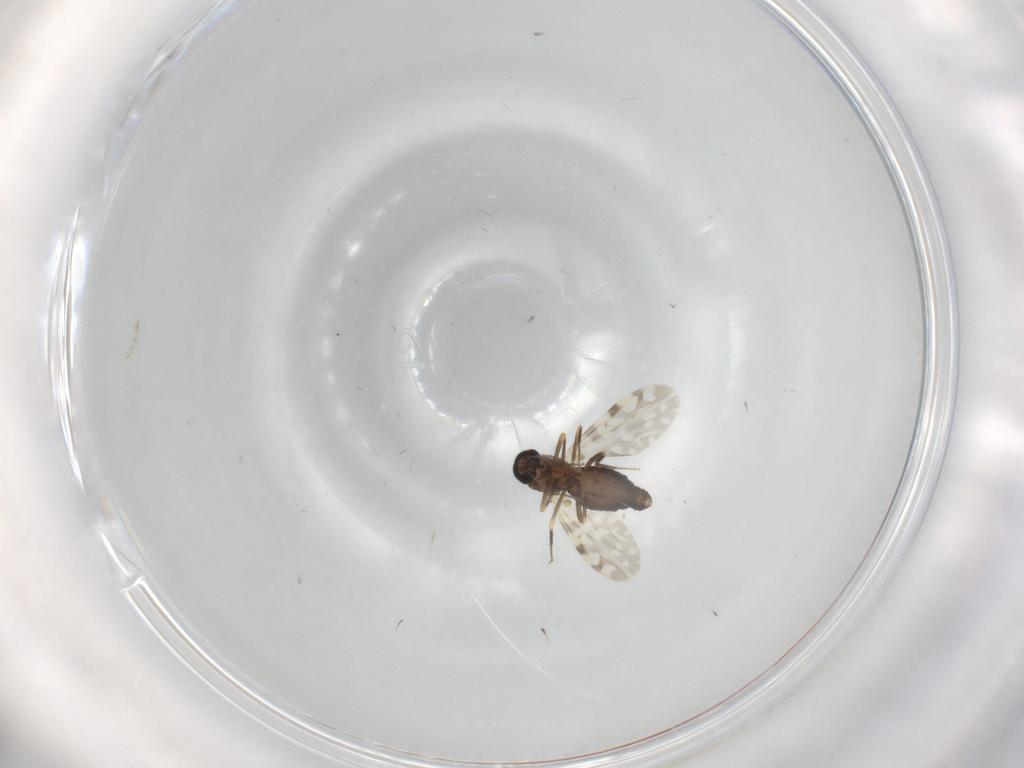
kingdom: Animalia
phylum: Arthropoda
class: Insecta
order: Diptera
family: Ceratopogonidae
